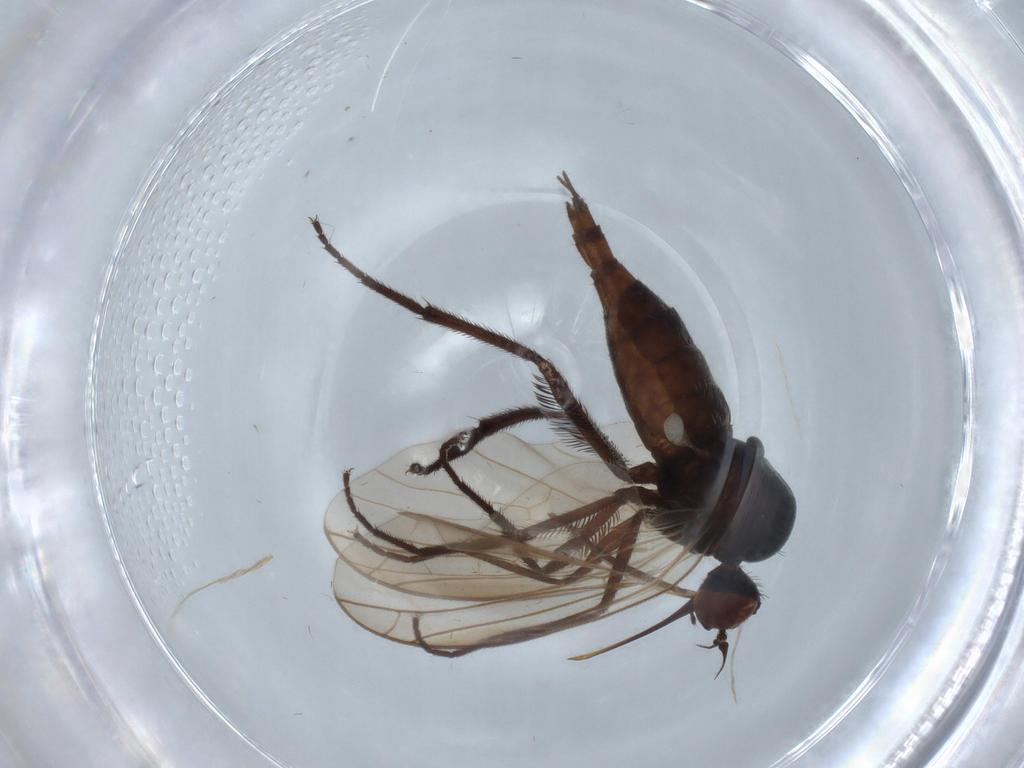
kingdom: Animalia
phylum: Arthropoda
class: Insecta
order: Diptera
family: Empididae
